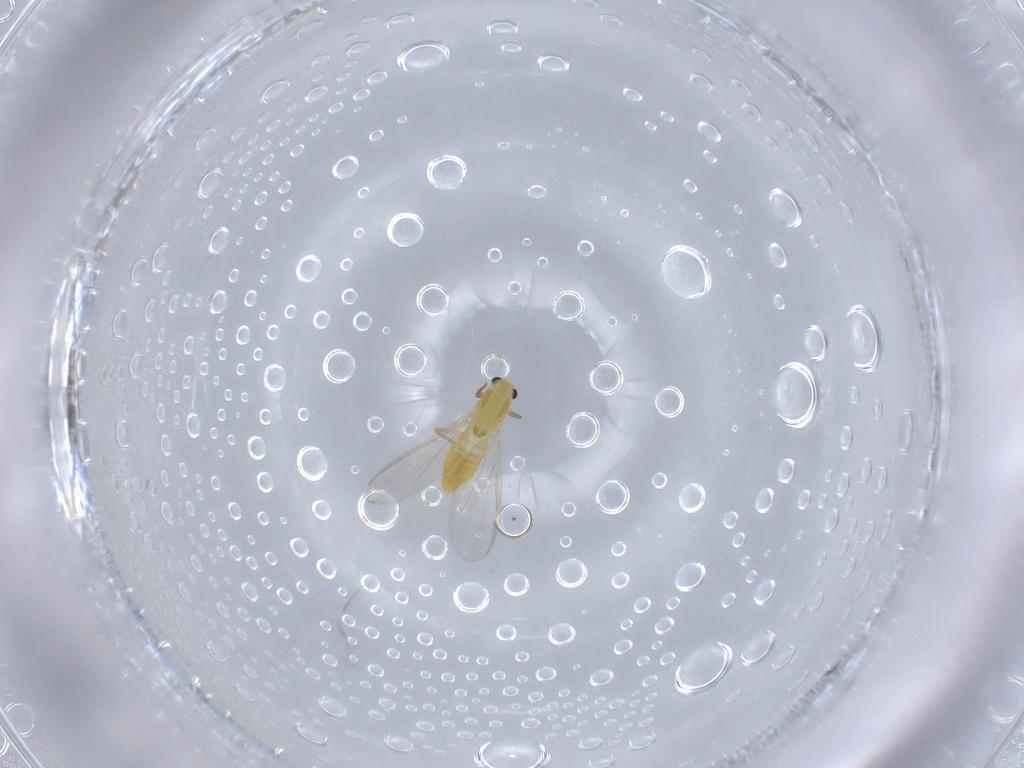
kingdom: Animalia
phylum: Arthropoda
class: Insecta
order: Diptera
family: Chironomidae
